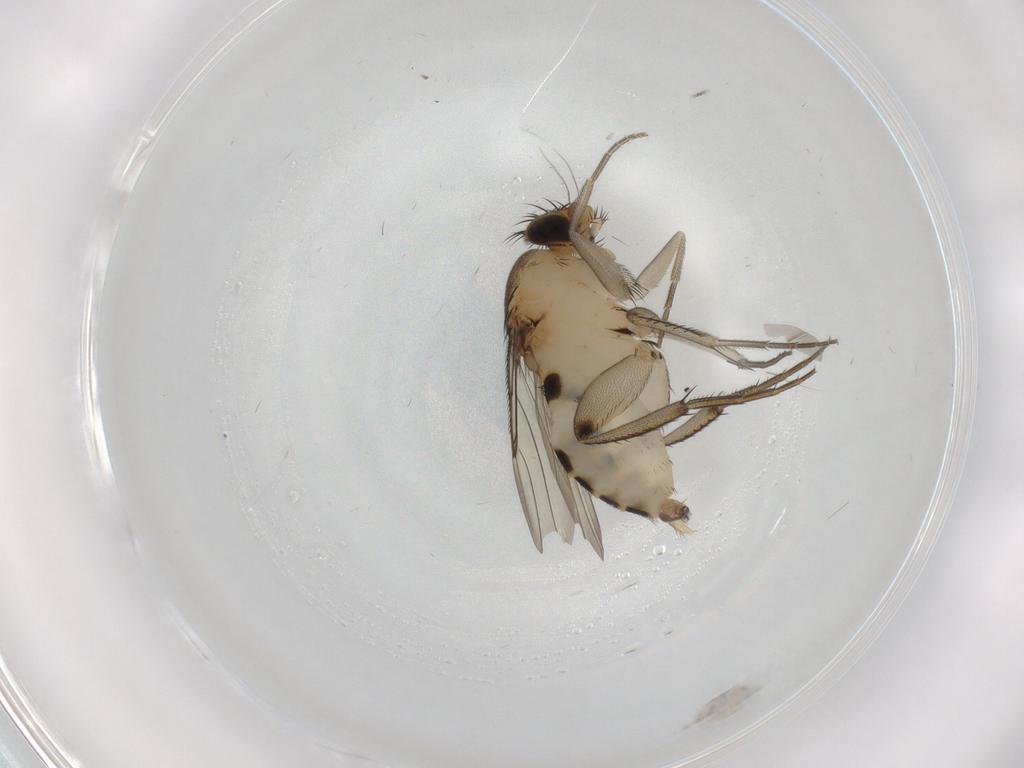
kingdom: Animalia
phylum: Arthropoda
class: Insecta
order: Diptera
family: Phoridae
